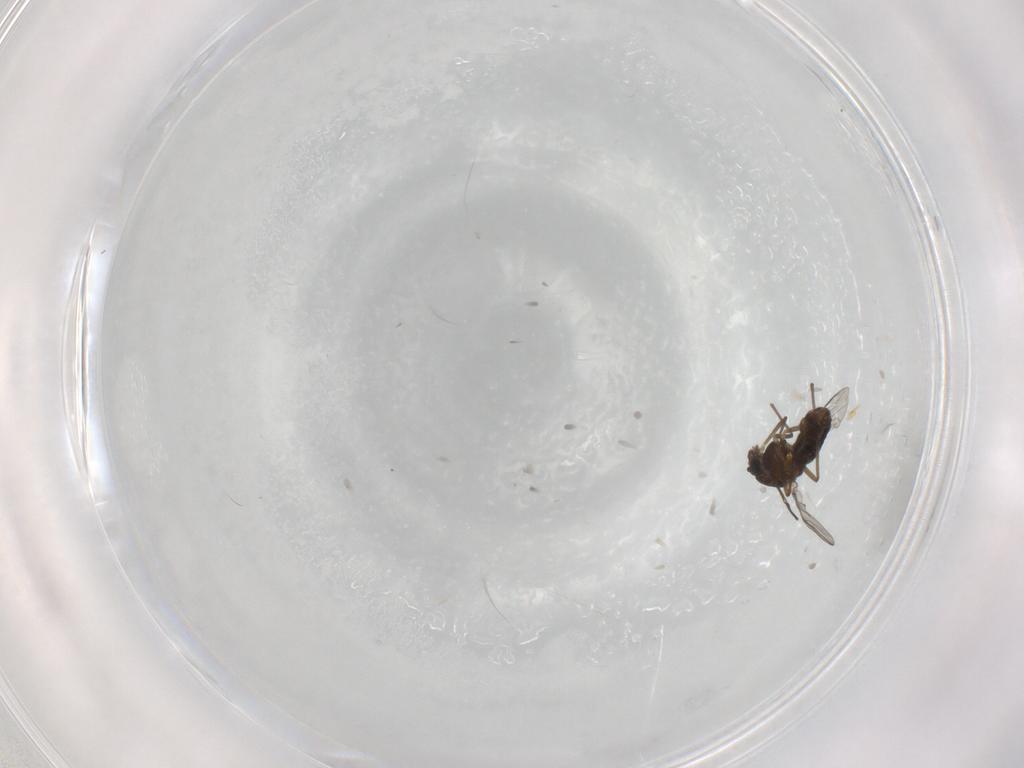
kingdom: Animalia
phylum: Arthropoda
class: Insecta
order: Diptera
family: Chironomidae
